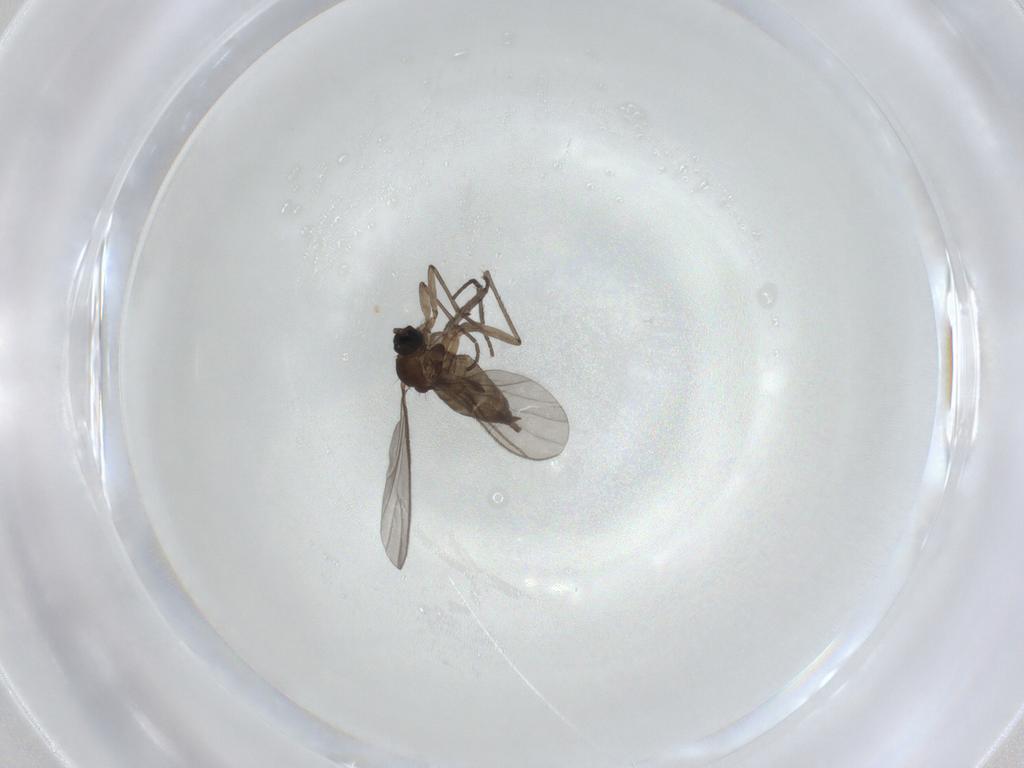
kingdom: Animalia
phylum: Arthropoda
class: Insecta
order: Diptera
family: Sciaridae
